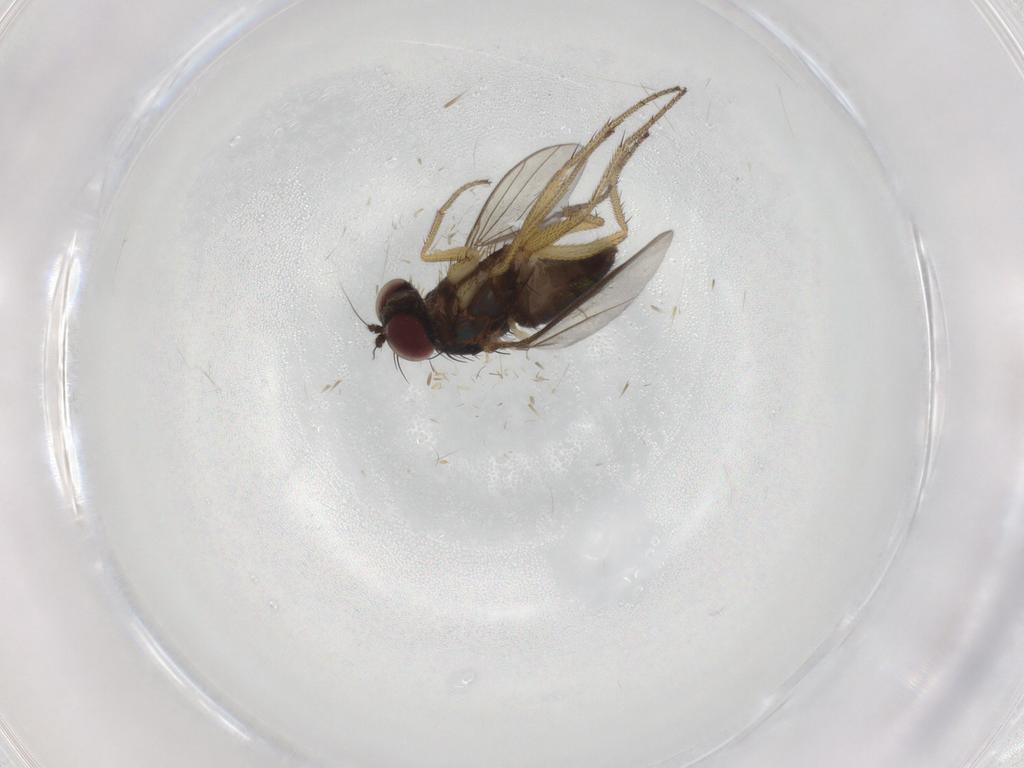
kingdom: Animalia
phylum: Arthropoda
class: Insecta
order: Diptera
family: Dolichopodidae
